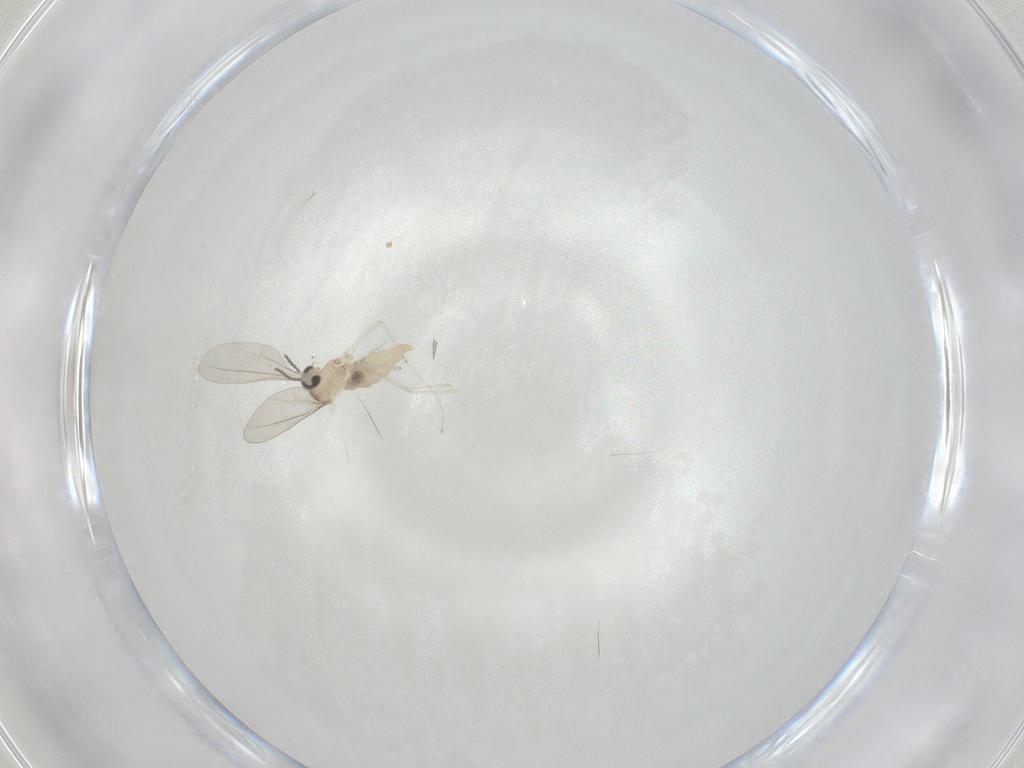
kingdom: Animalia
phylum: Arthropoda
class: Insecta
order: Diptera
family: Cecidomyiidae
